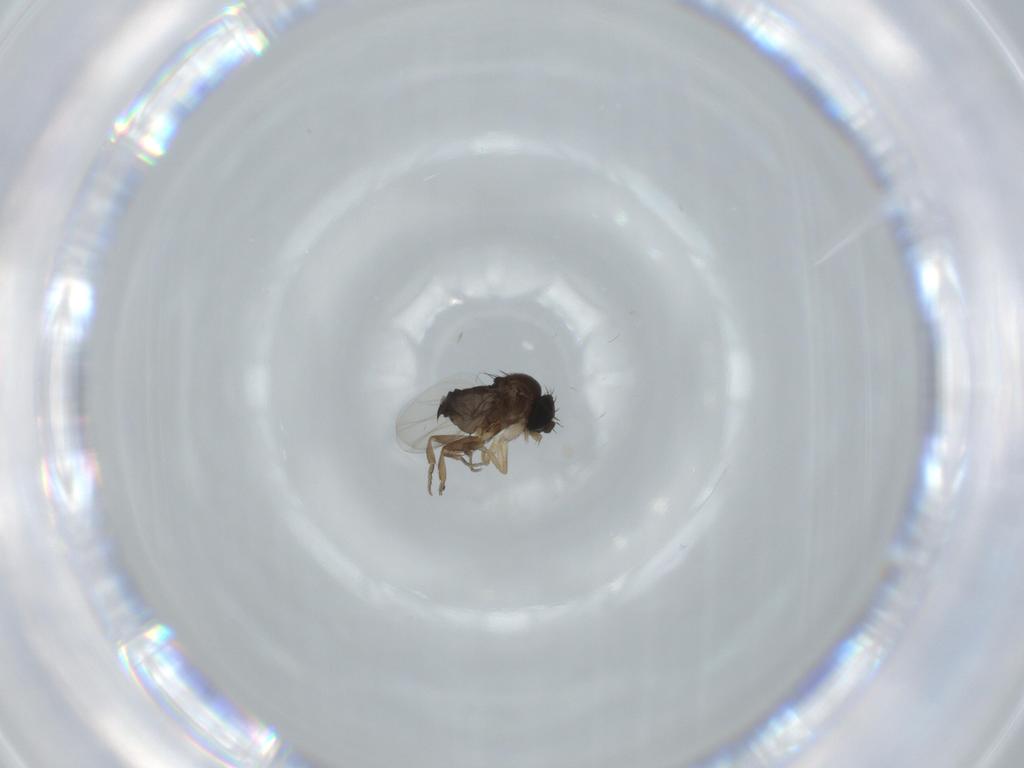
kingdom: Animalia
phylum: Arthropoda
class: Insecta
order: Diptera
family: Phoridae
